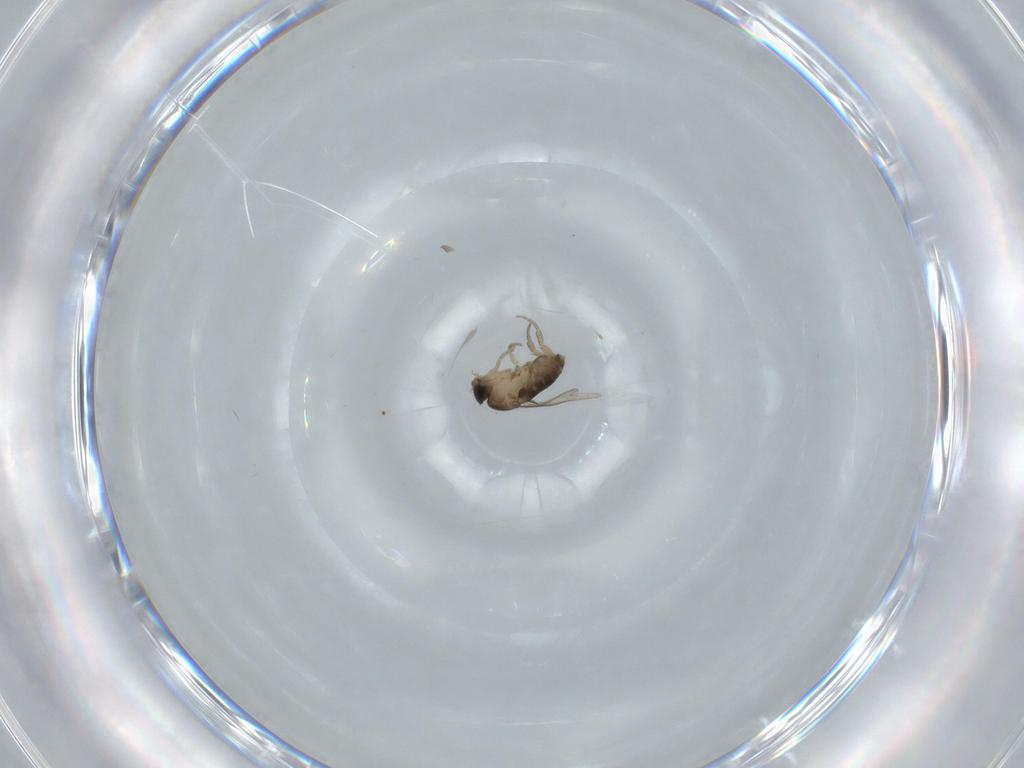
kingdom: Animalia
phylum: Arthropoda
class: Insecta
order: Diptera
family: Phoridae
